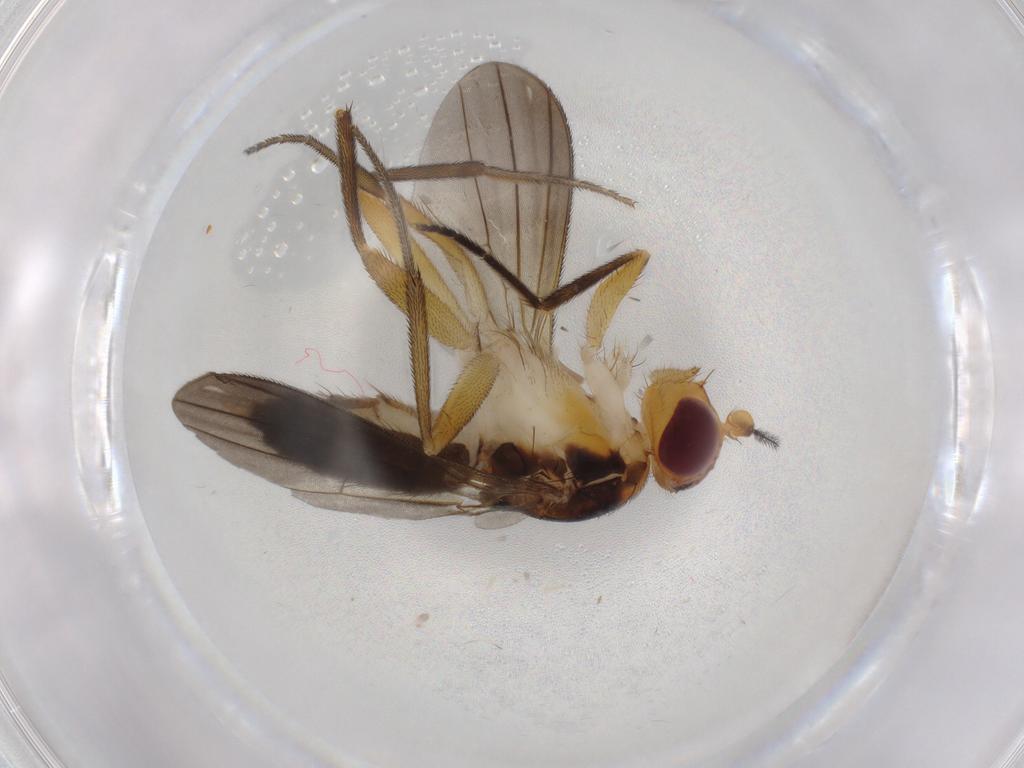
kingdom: Animalia
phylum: Arthropoda
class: Insecta
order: Diptera
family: Clusiidae
